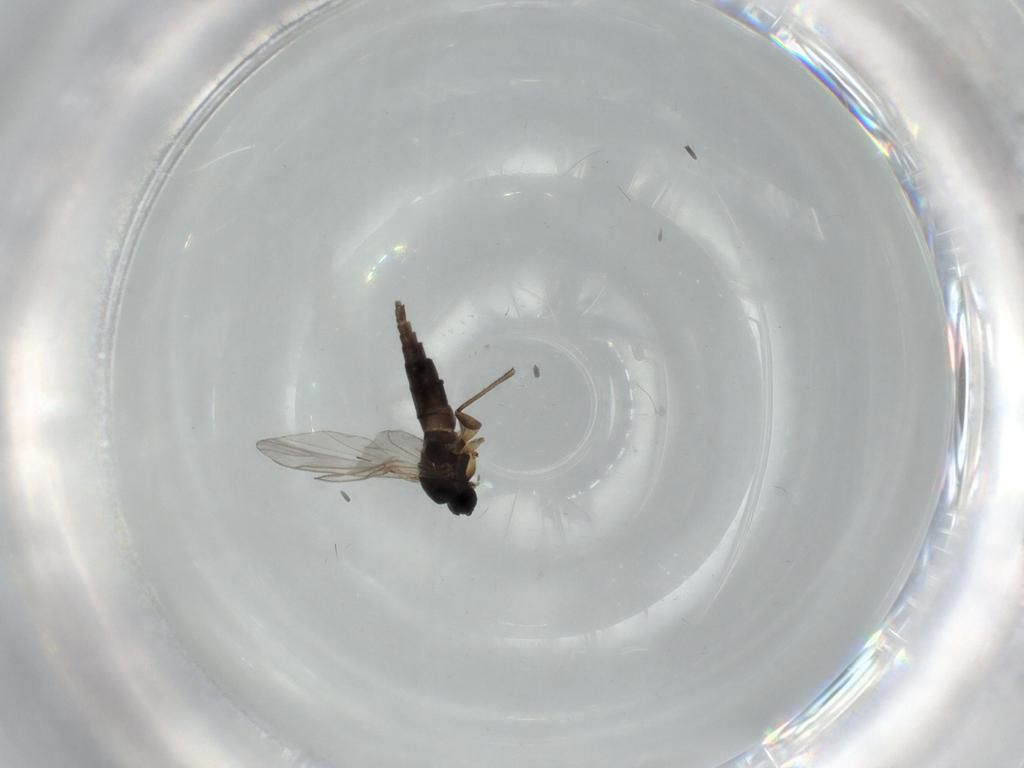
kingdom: Animalia
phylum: Arthropoda
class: Insecta
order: Diptera
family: Sciaridae
